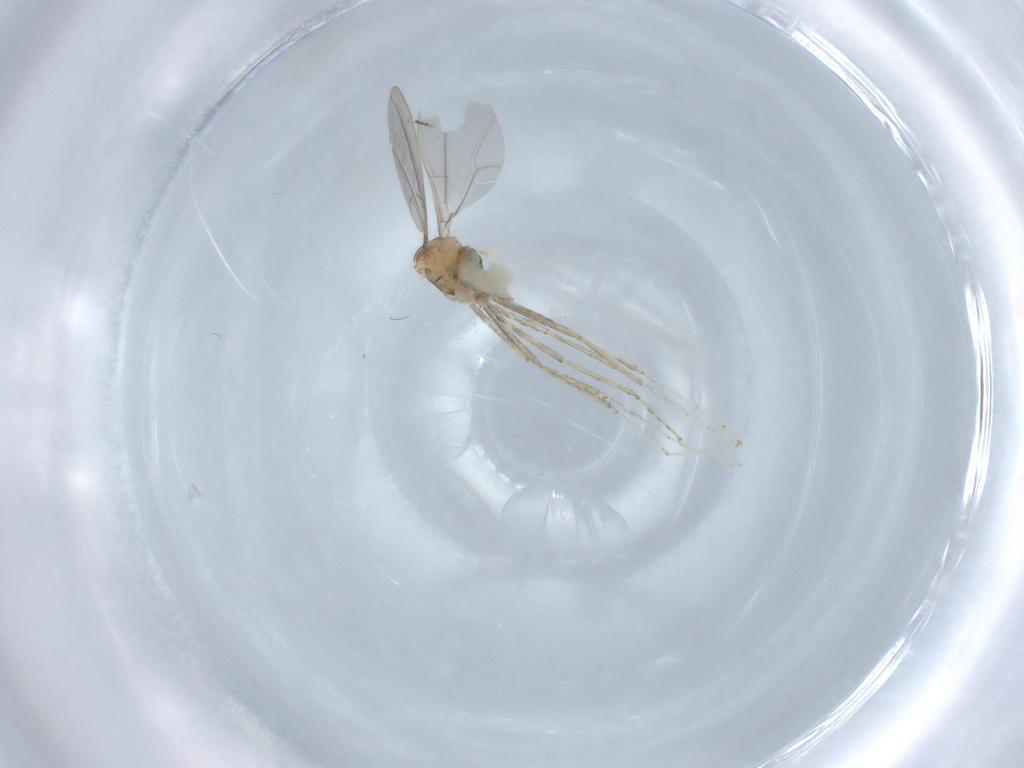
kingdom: Animalia
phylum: Arthropoda
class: Insecta
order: Diptera
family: Cecidomyiidae
